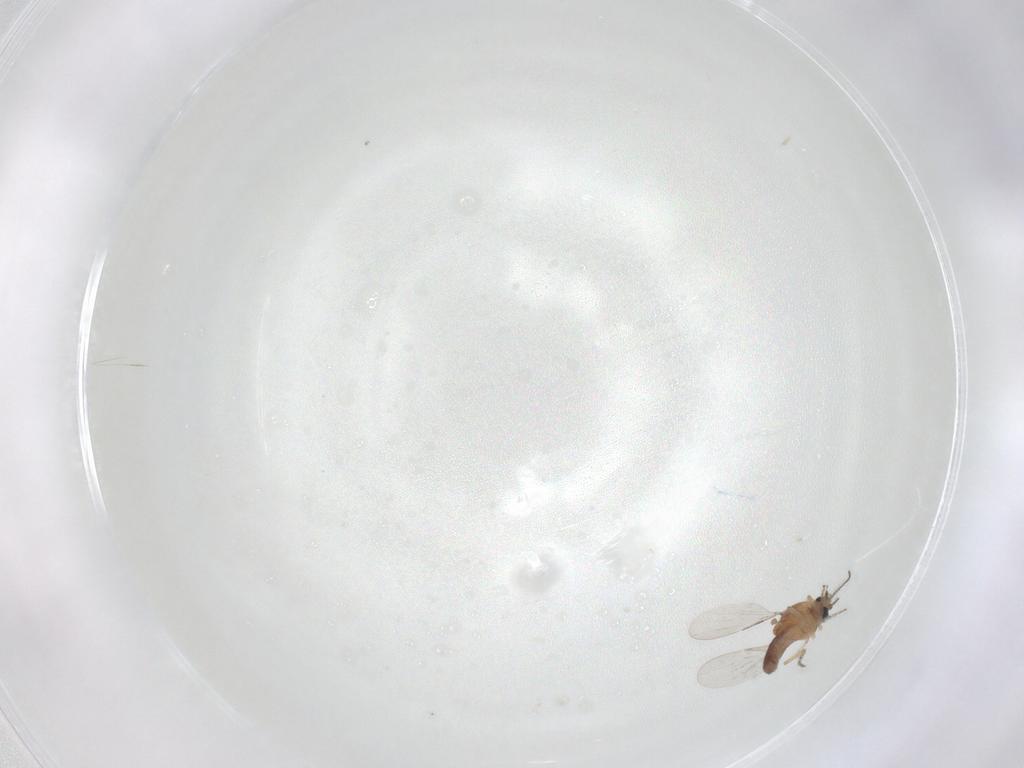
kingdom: Animalia
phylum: Arthropoda
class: Insecta
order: Diptera
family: Ceratopogonidae
